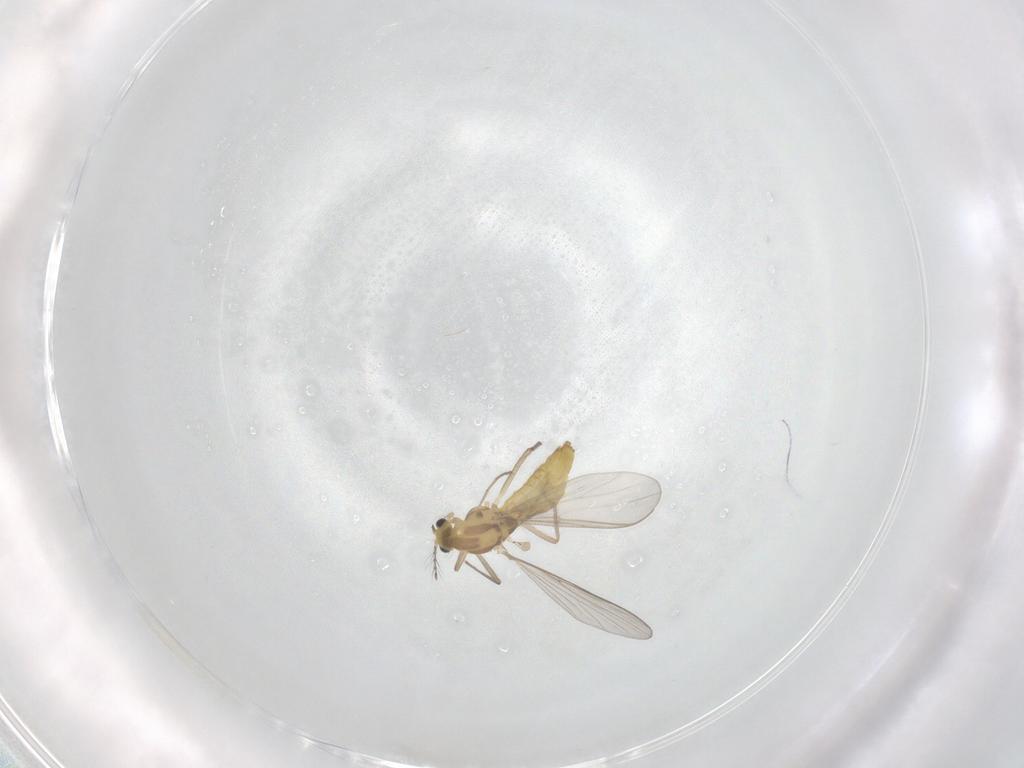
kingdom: Animalia
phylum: Arthropoda
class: Insecta
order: Diptera
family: Chironomidae
